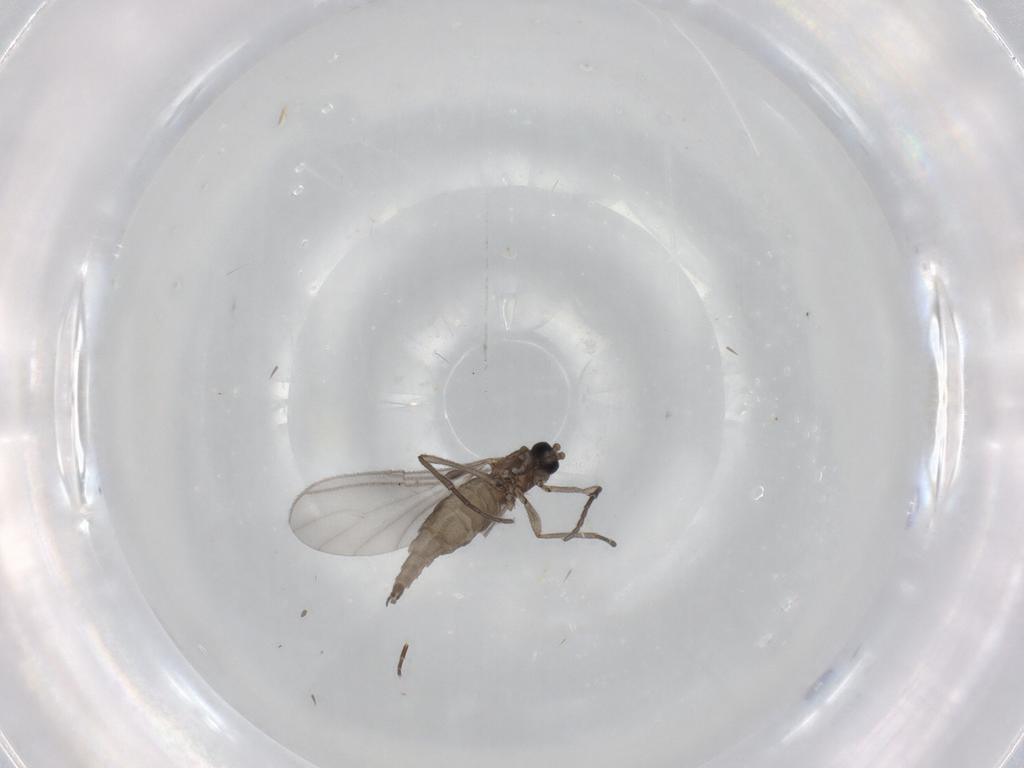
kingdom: Animalia
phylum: Arthropoda
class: Insecta
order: Diptera
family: Sciaridae
